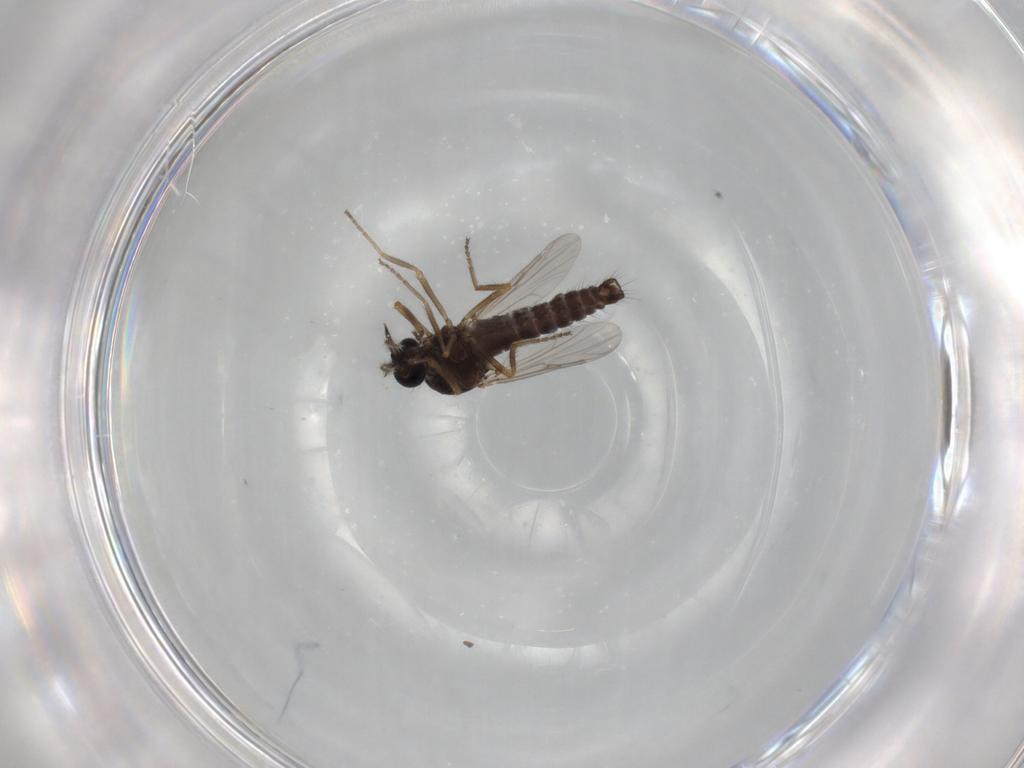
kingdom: Animalia
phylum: Arthropoda
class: Insecta
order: Diptera
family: Ceratopogonidae
